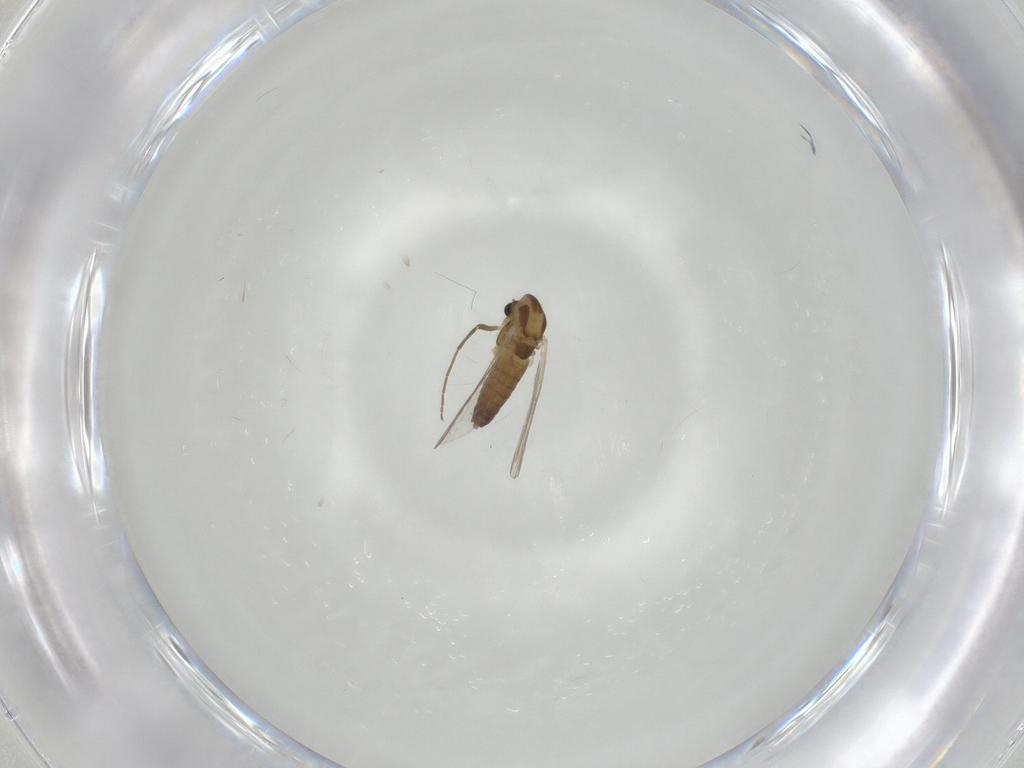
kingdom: Animalia
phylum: Arthropoda
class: Insecta
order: Diptera
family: Chironomidae
